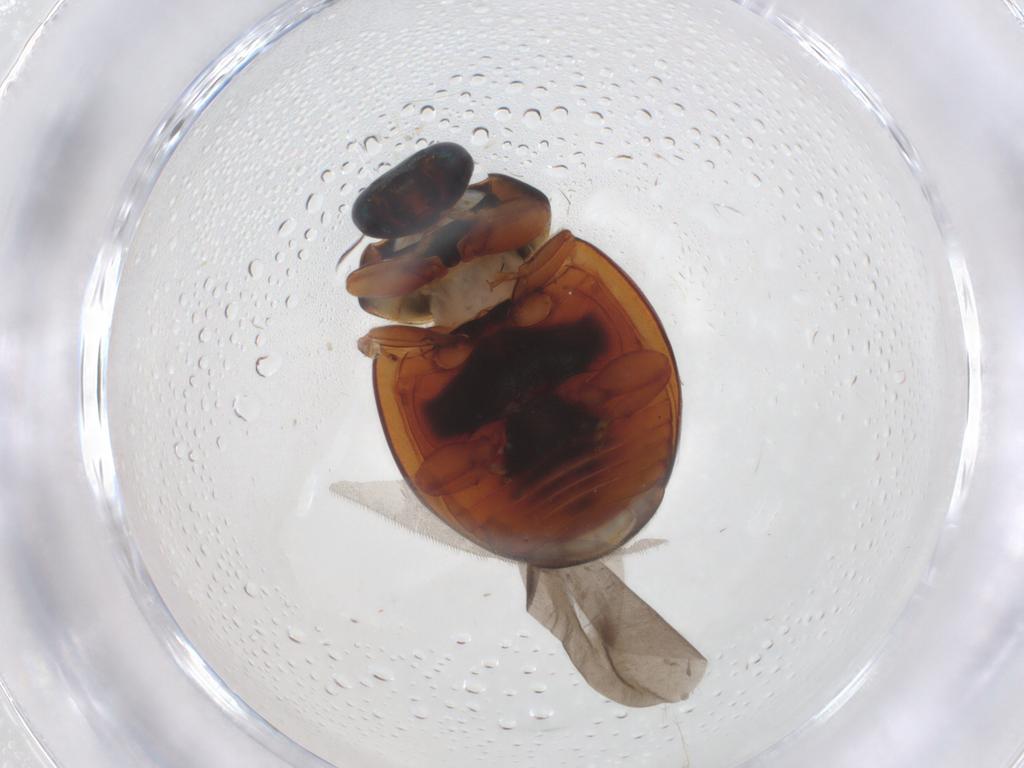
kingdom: Animalia
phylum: Arthropoda
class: Insecta
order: Coleoptera
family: Coccinellidae
